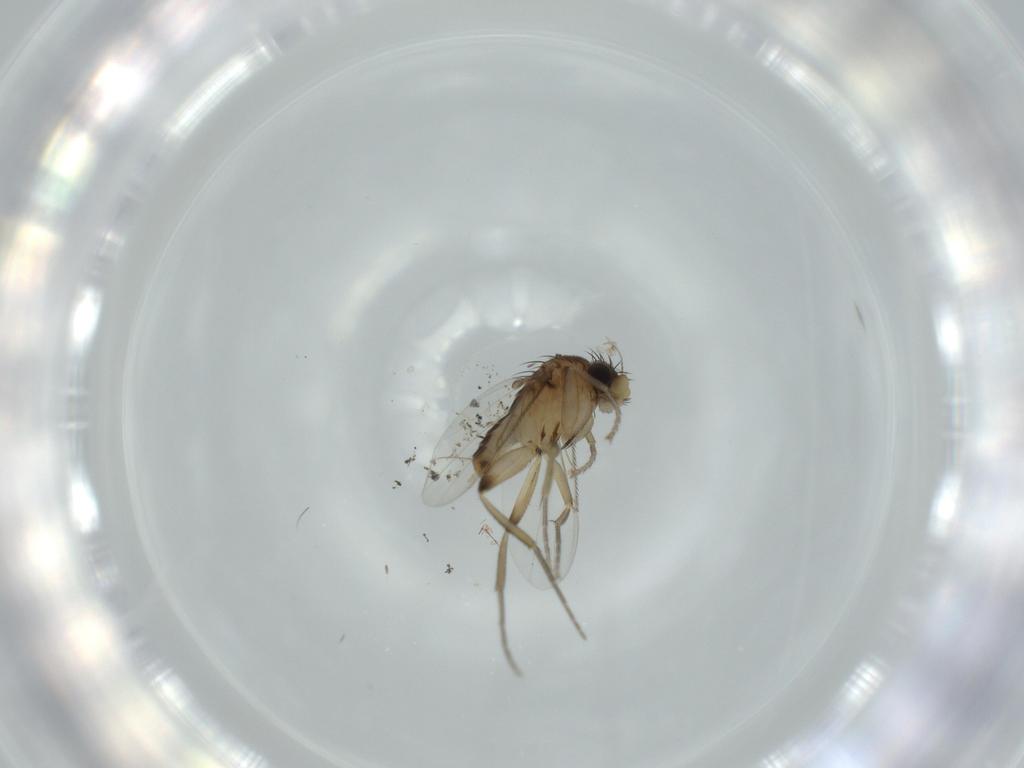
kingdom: Animalia
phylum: Arthropoda
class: Insecta
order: Diptera
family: Phoridae
